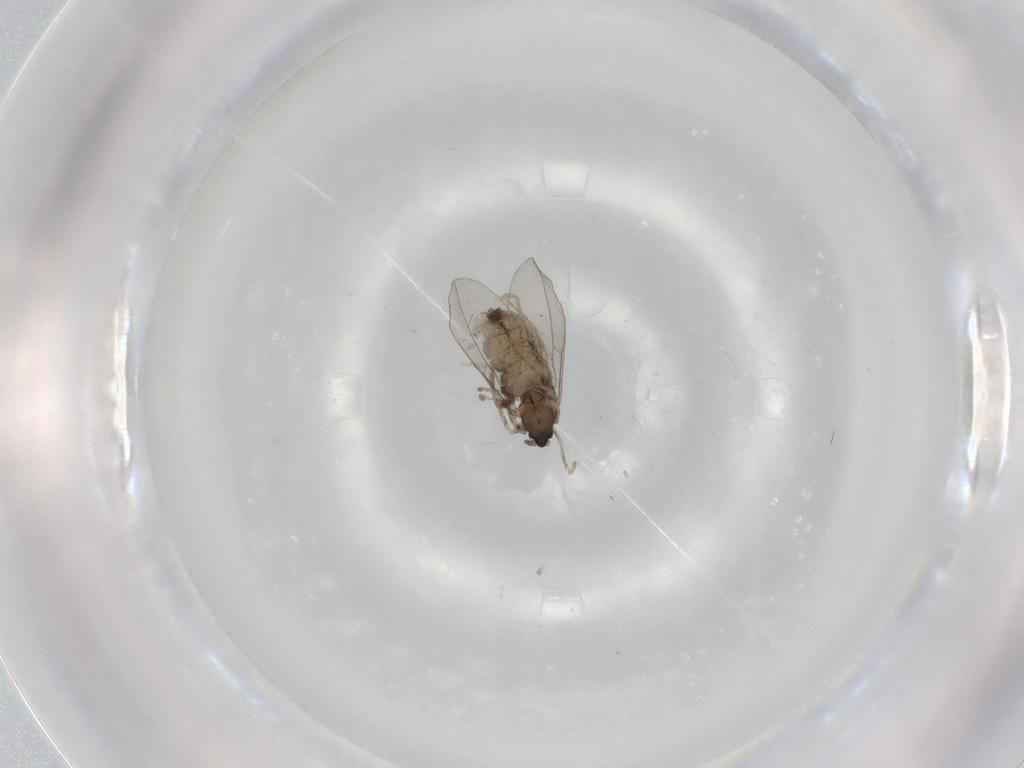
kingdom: Animalia
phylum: Arthropoda
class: Insecta
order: Diptera
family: Cecidomyiidae
